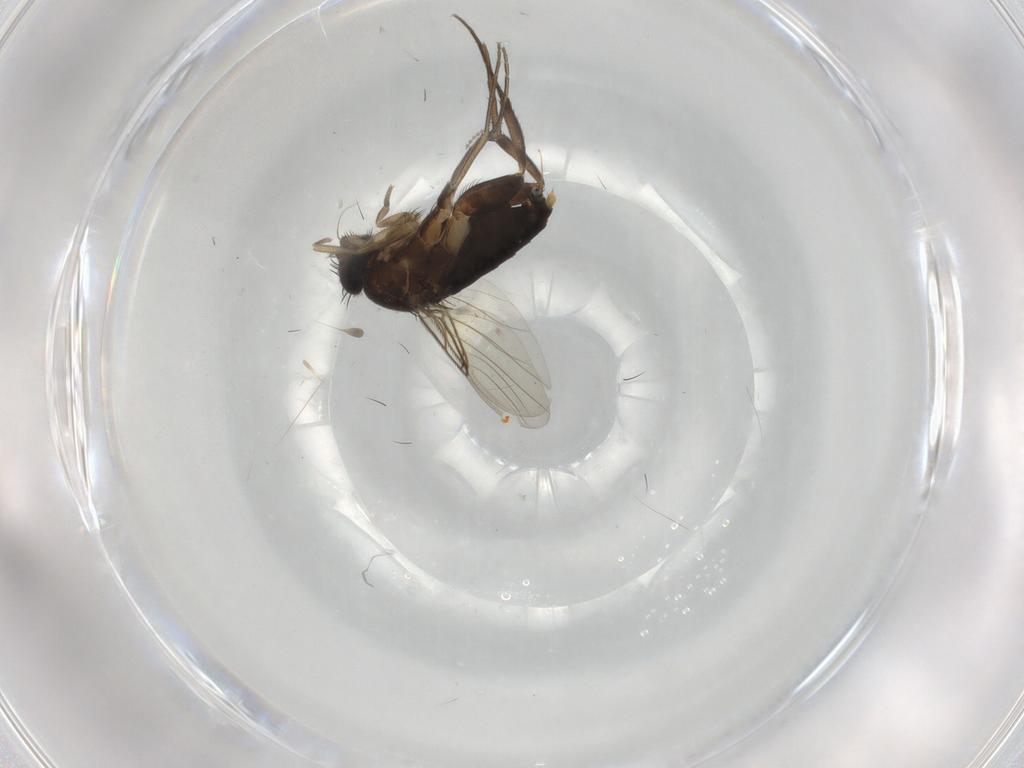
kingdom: Animalia
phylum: Arthropoda
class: Insecta
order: Diptera
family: Phoridae
